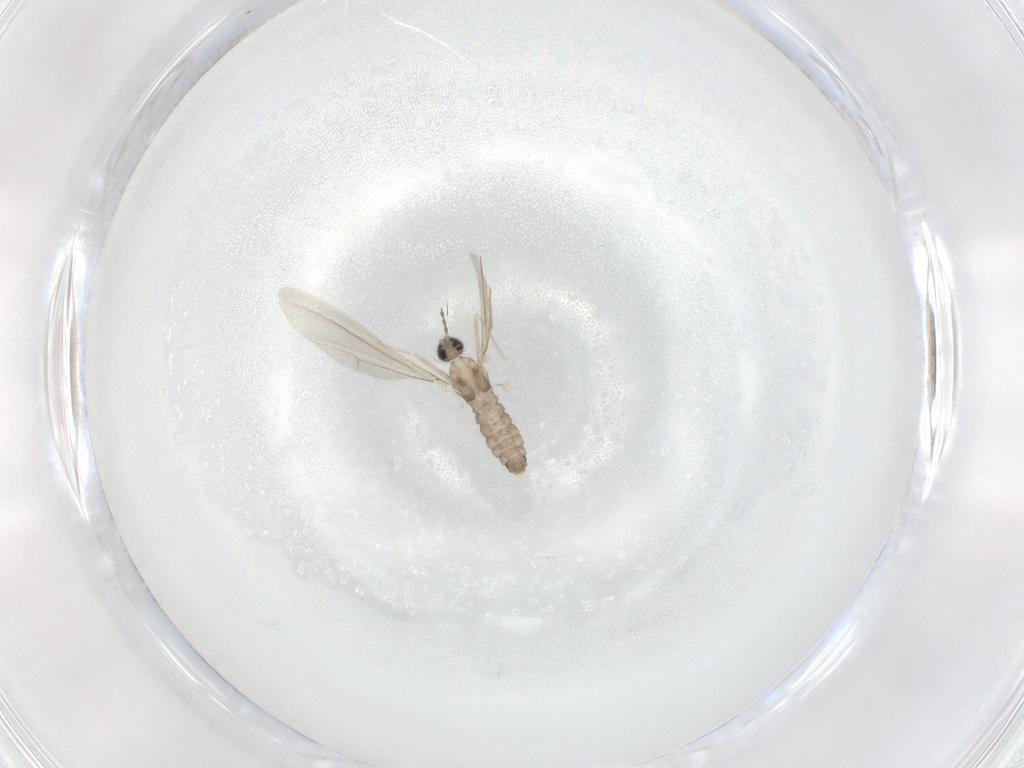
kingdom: Animalia
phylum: Arthropoda
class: Insecta
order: Diptera
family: Cecidomyiidae
